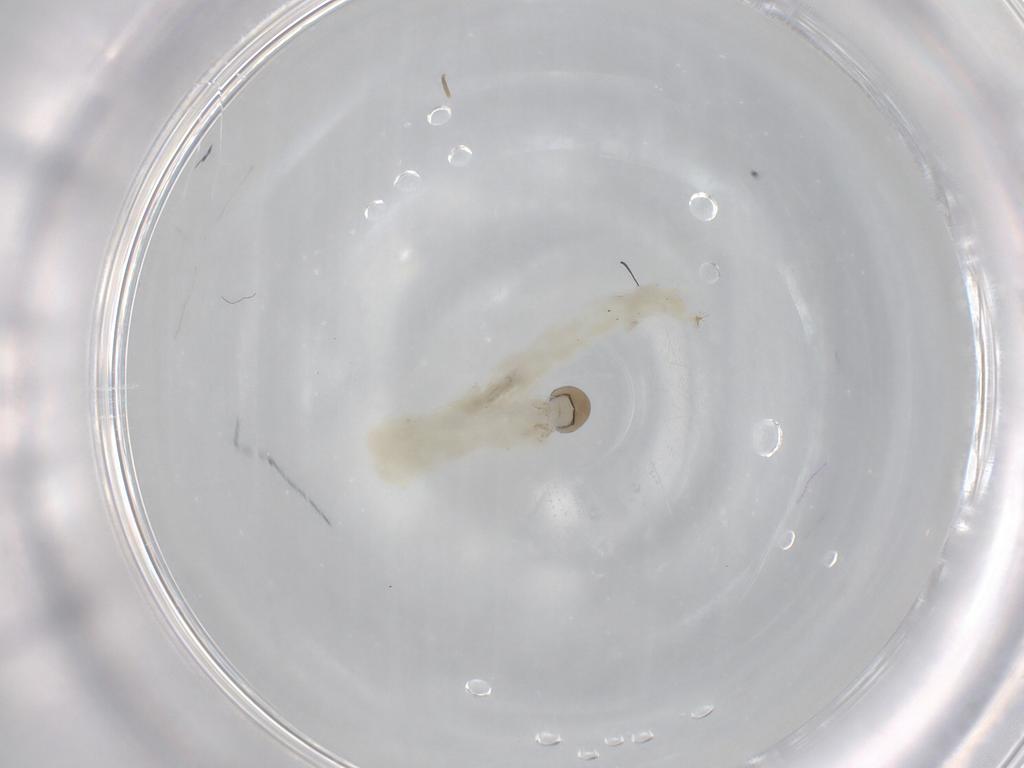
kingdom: Animalia
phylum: Arthropoda
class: Insecta
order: Diptera
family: Chironomidae
